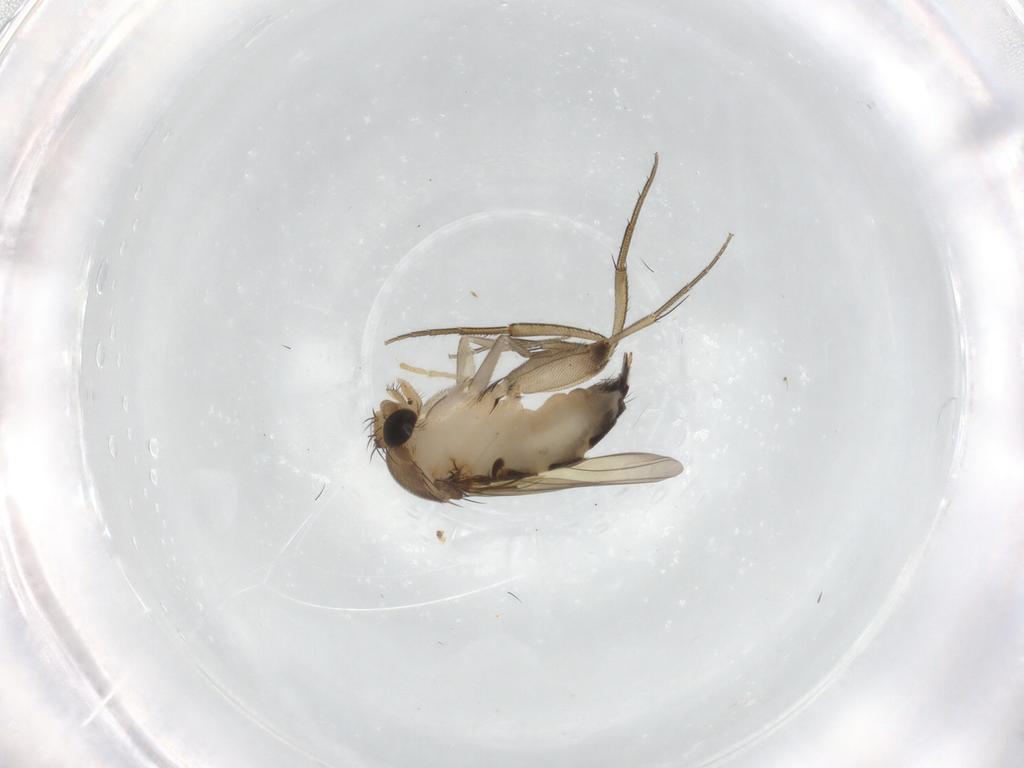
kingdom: Animalia
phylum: Arthropoda
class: Insecta
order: Diptera
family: Phoridae
